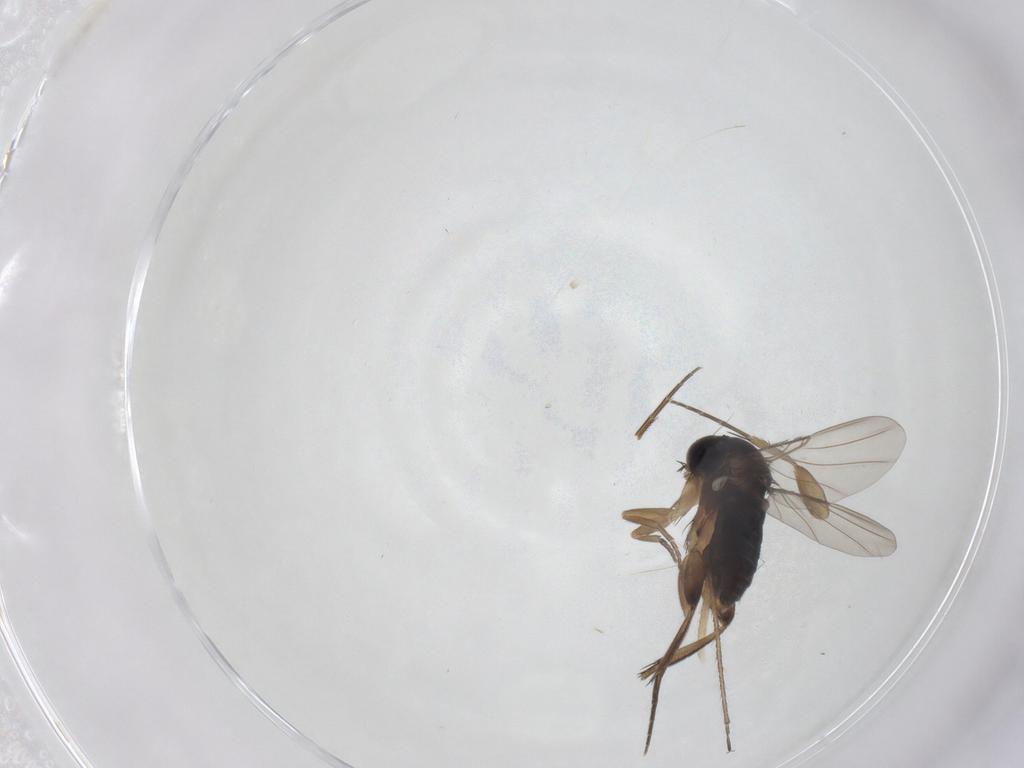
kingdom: Animalia
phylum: Arthropoda
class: Insecta
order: Diptera
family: Phoridae
